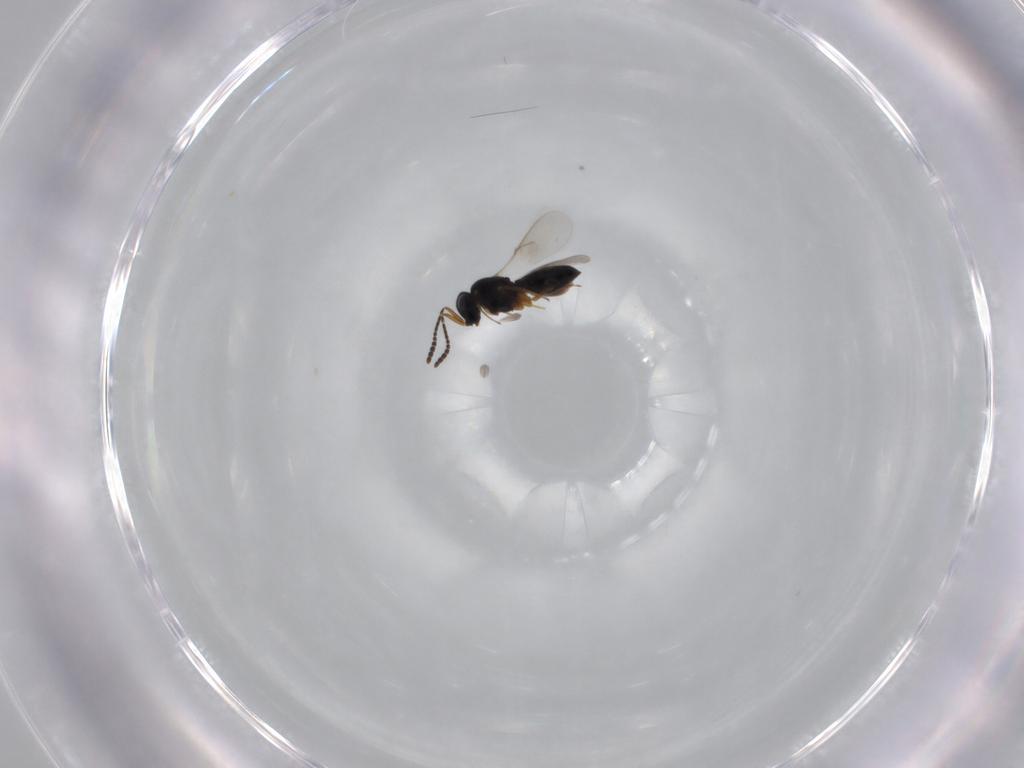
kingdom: Animalia
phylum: Arthropoda
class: Insecta
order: Hymenoptera
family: Scelionidae
